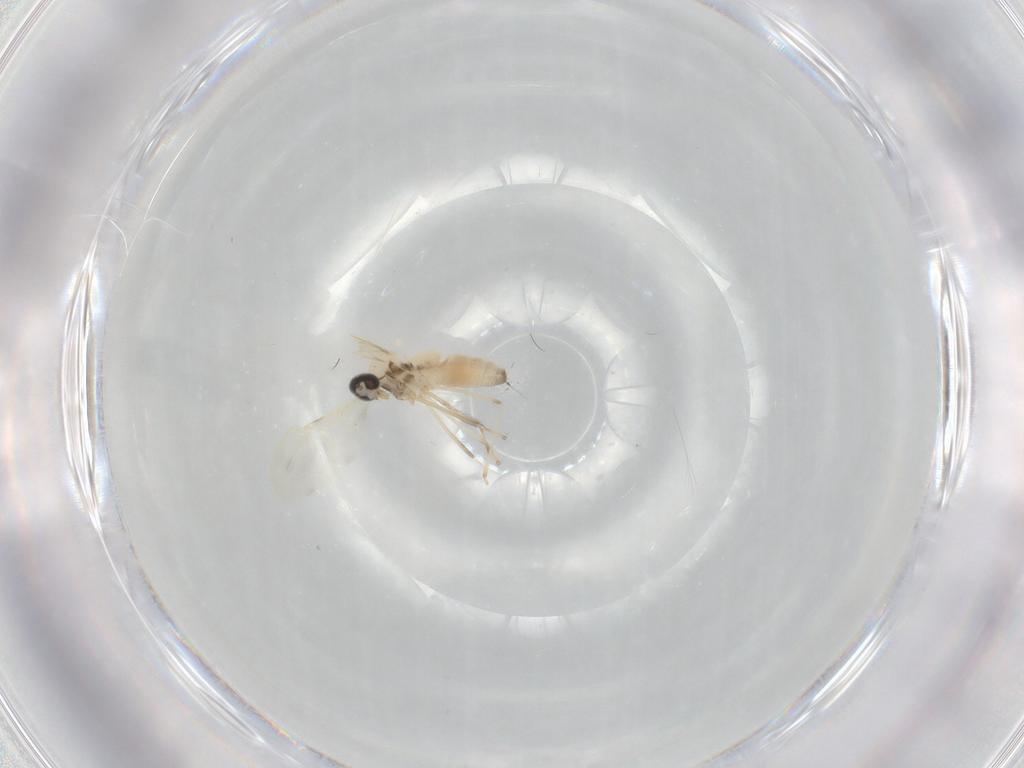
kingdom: Animalia
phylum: Arthropoda
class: Insecta
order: Diptera
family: Cecidomyiidae
